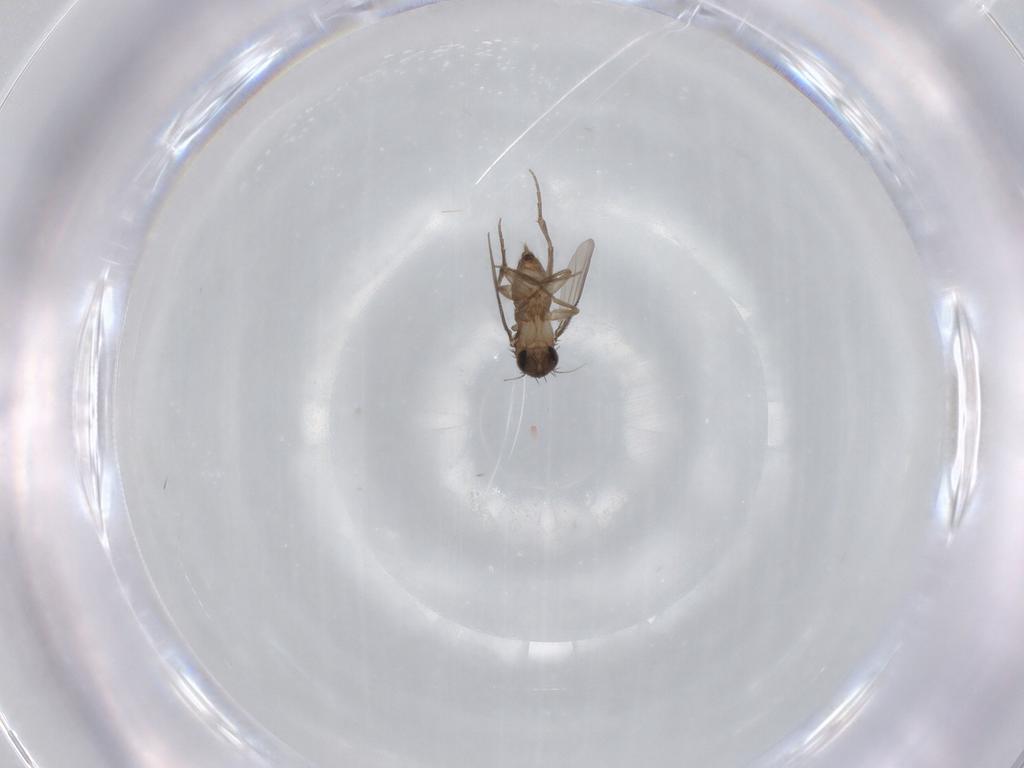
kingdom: Animalia
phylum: Arthropoda
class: Insecta
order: Diptera
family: Phoridae
